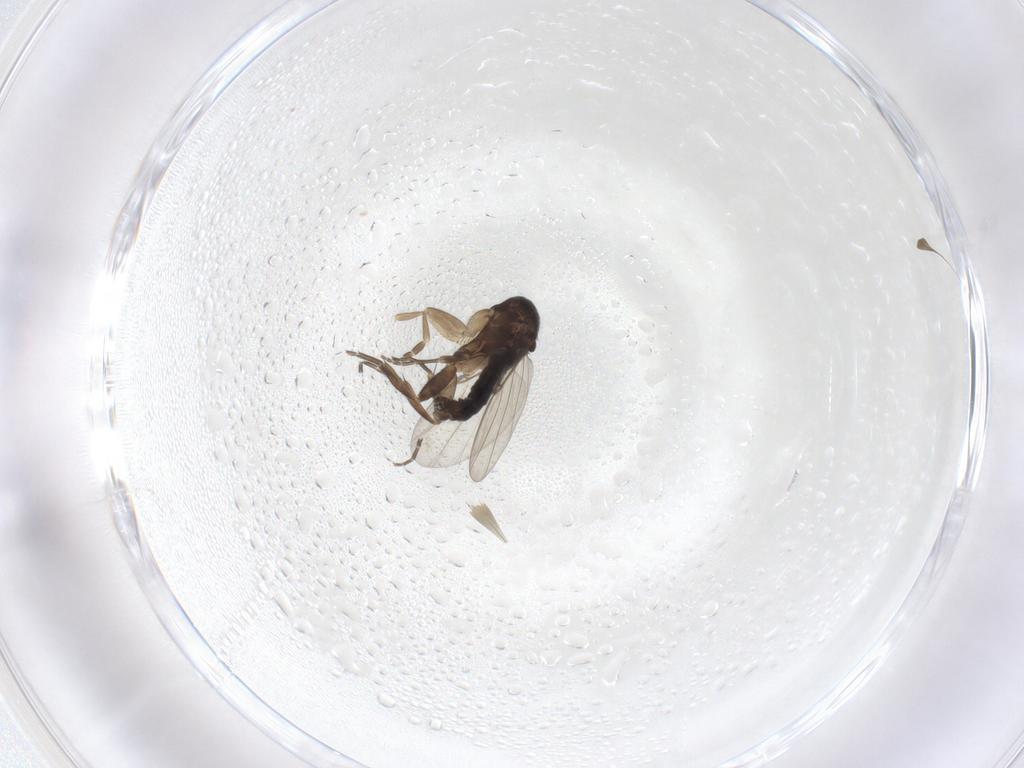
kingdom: Animalia
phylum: Arthropoda
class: Insecta
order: Diptera
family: Phoridae
